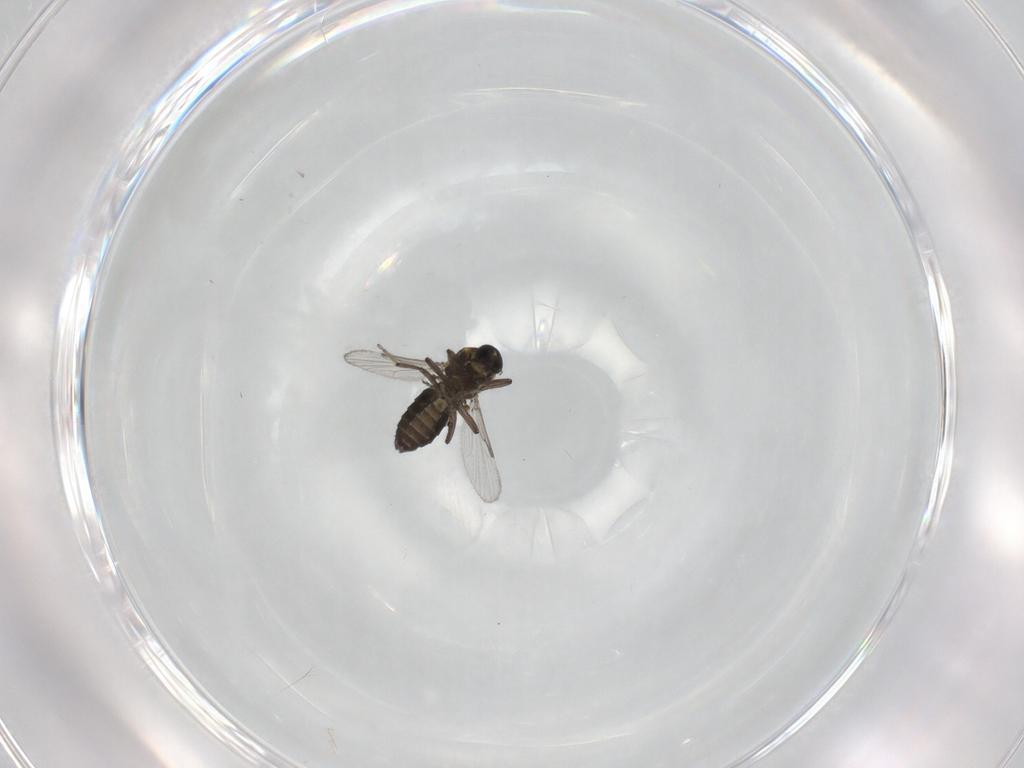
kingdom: Animalia
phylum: Arthropoda
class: Insecta
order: Diptera
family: Ceratopogonidae
